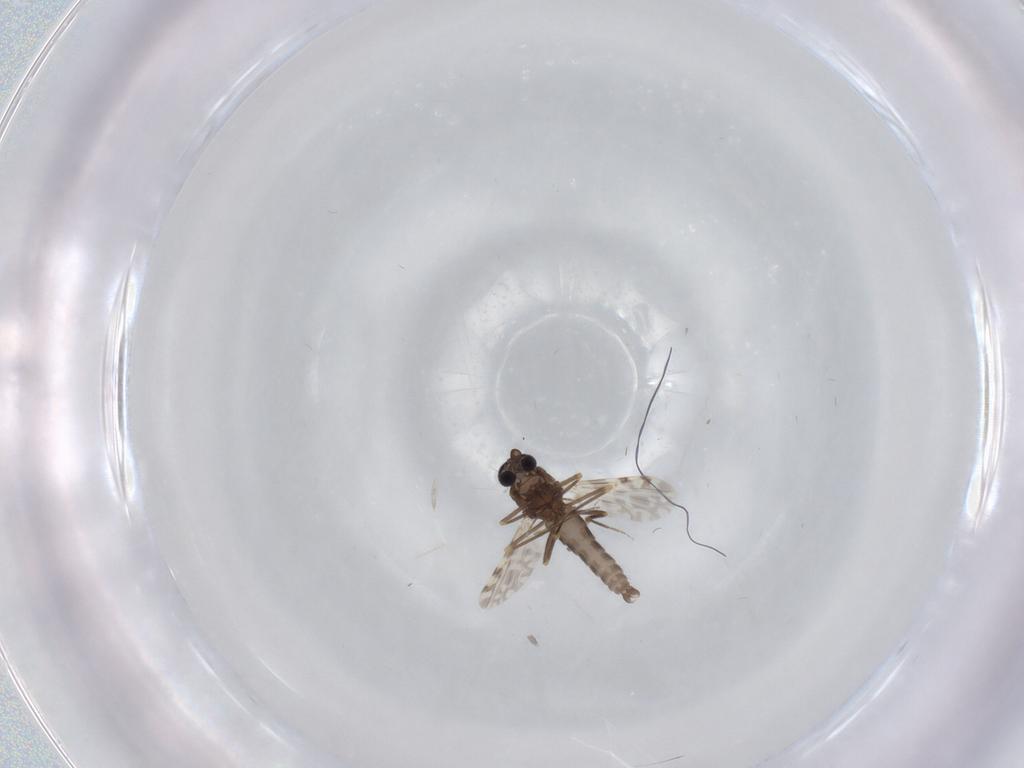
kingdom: Animalia
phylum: Arthropoda
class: Insecta
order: Diptera
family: Ceratopogonidae
